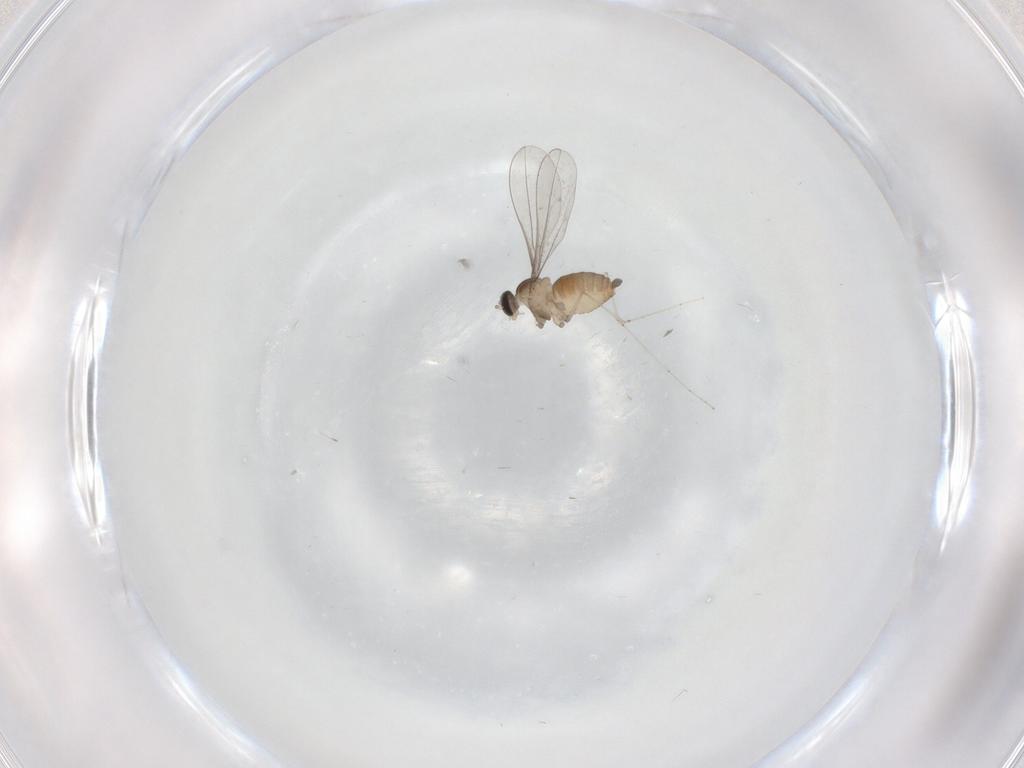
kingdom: Animalia
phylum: Arthropoda
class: Insecta
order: Diptera
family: Cecidomyiidae
